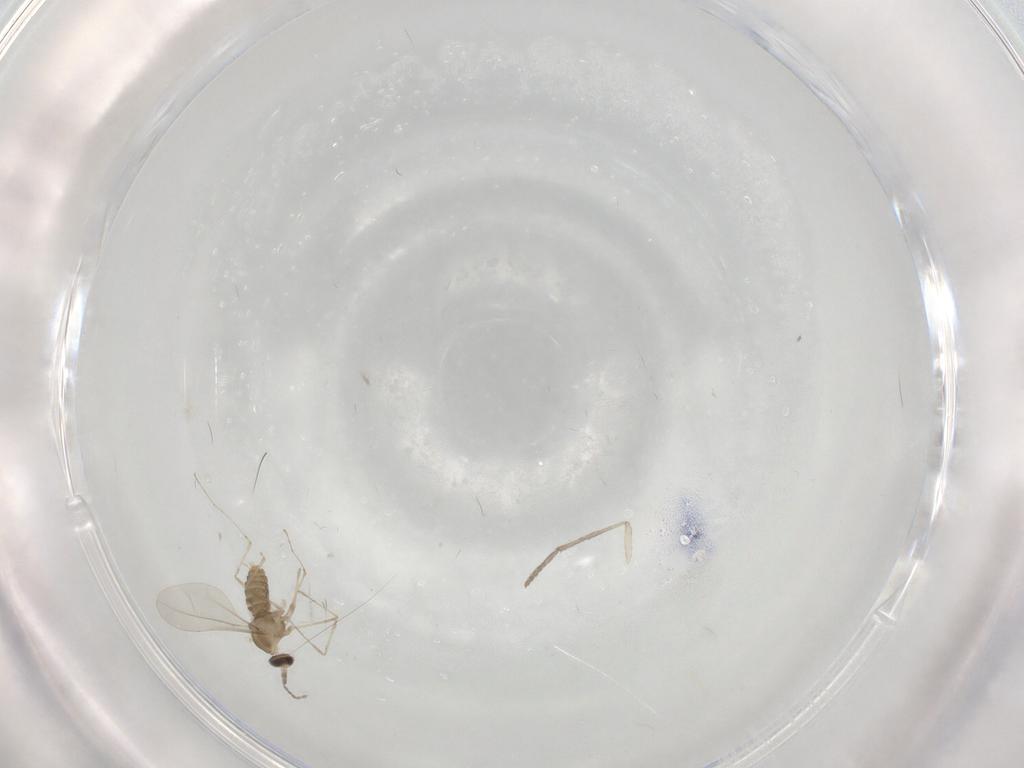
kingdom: Animalia
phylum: Arthropoda
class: Insecta
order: Diptera
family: Cecidomyiidae
